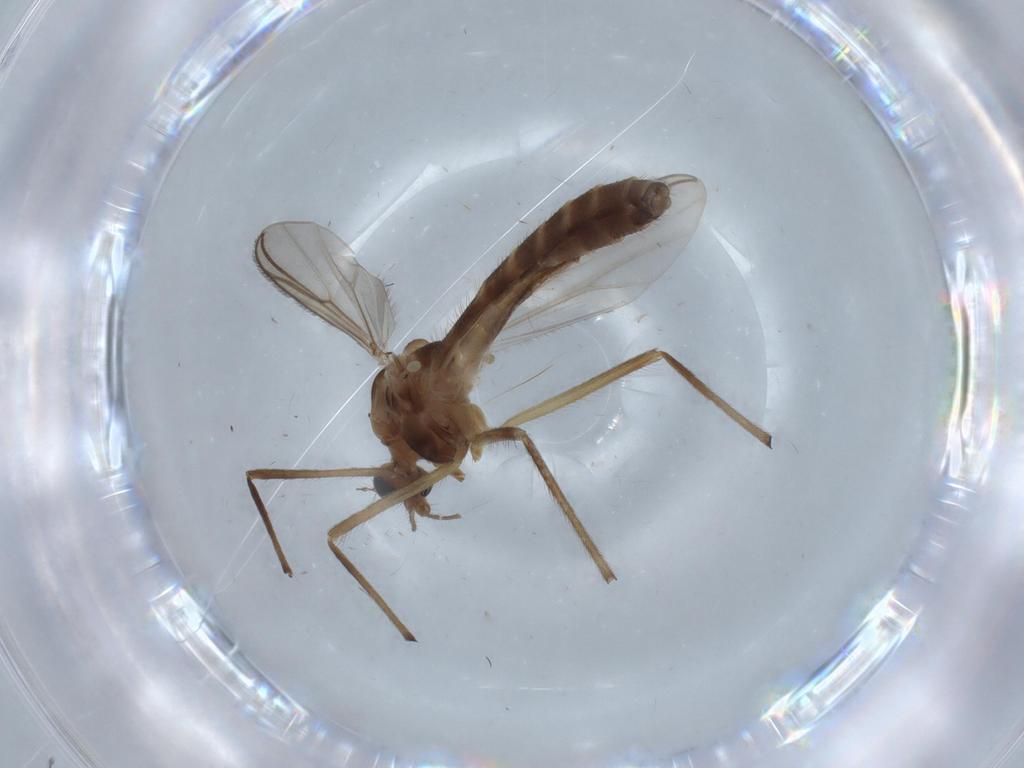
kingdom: Animalia
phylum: Arthropoda
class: Insecta
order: Diptera
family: Chironomidae
